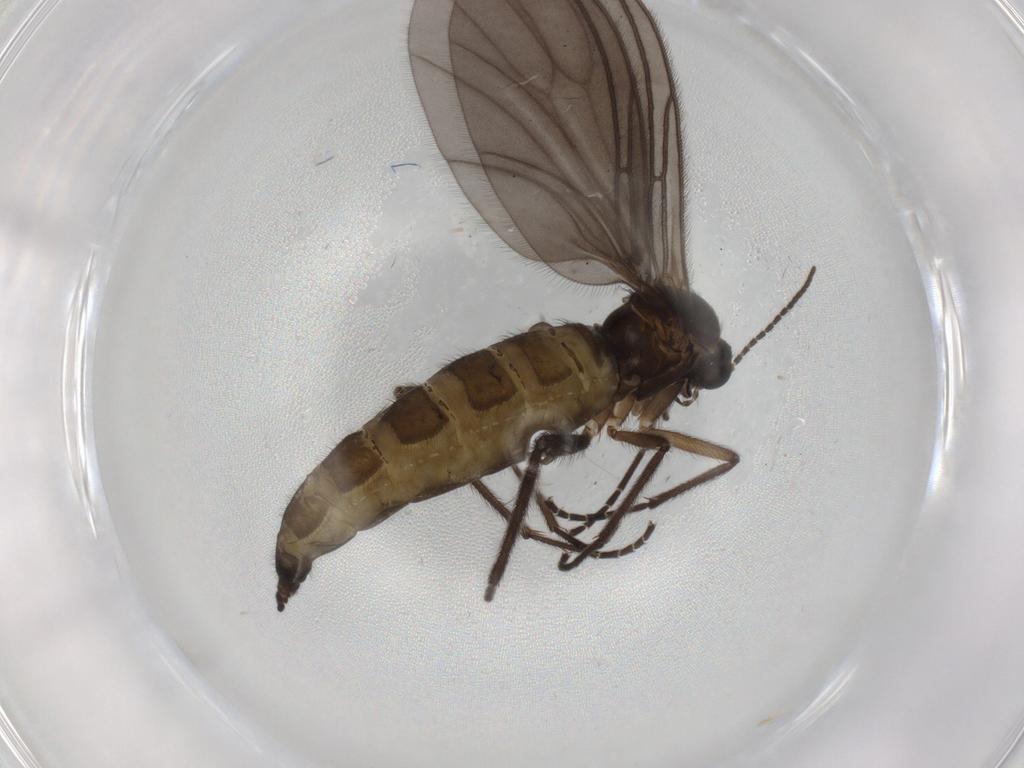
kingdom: Animalia
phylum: Arthropoda
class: Insecta
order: Diptera
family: Sciaridae
